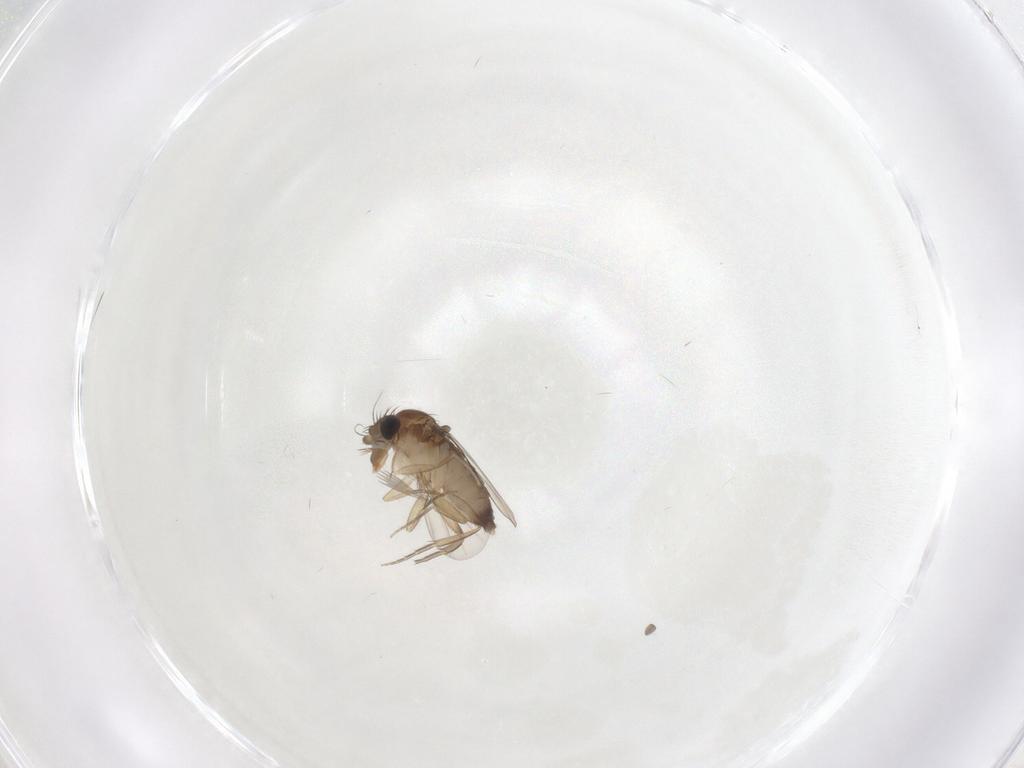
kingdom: Animalia
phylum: Arthropoda
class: Insecta
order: Diptera
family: Phoridae
